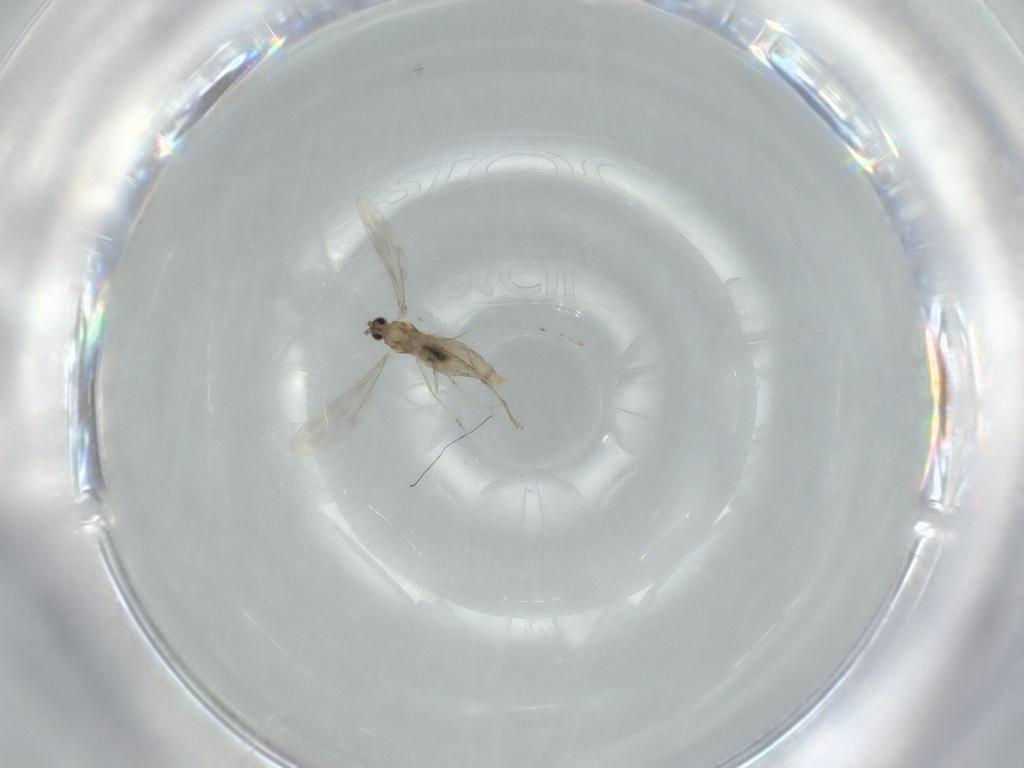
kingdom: Animalia
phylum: Arthropoda
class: Insecta
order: Diptera
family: Cecidomyiidae
